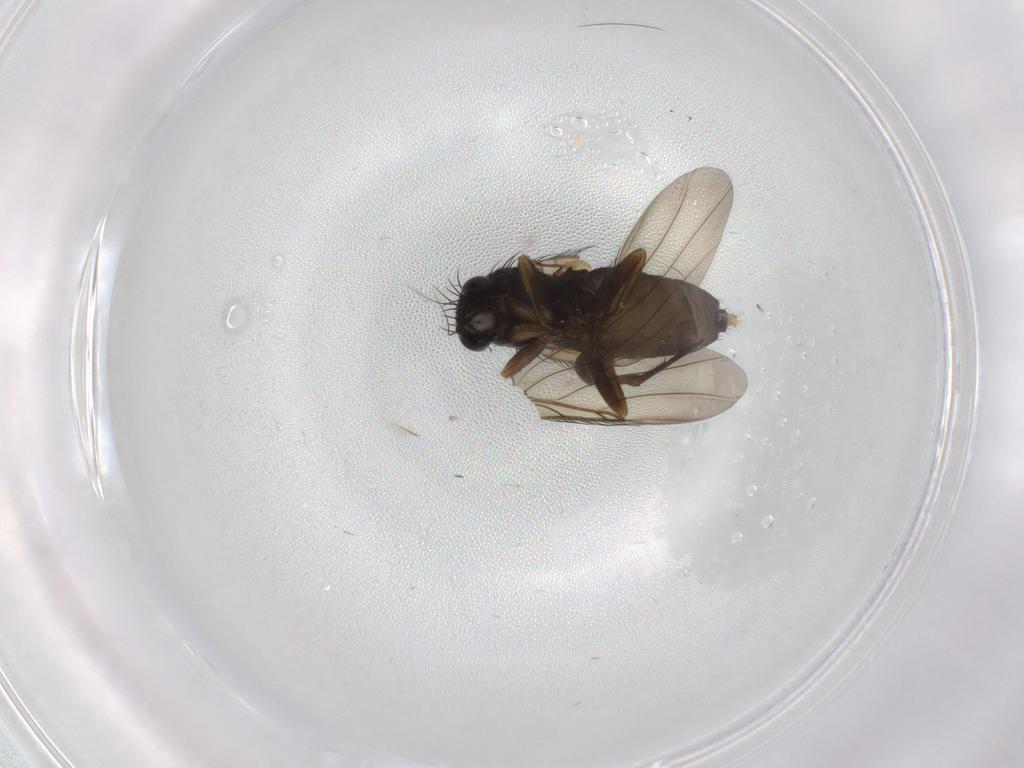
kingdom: Animalia
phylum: Arthropoda
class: Insecta
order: Diptera
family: Phoridae
